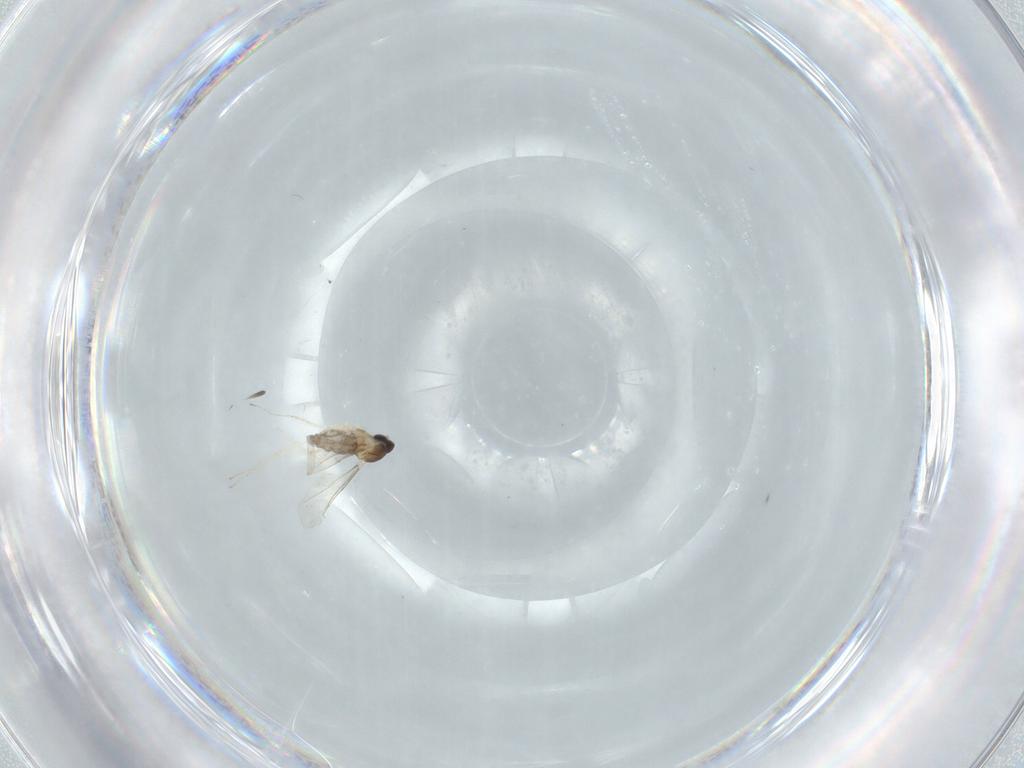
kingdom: Animalia
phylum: Arthropoda
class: Insecta
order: Diptera
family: Cecidomyiidae
